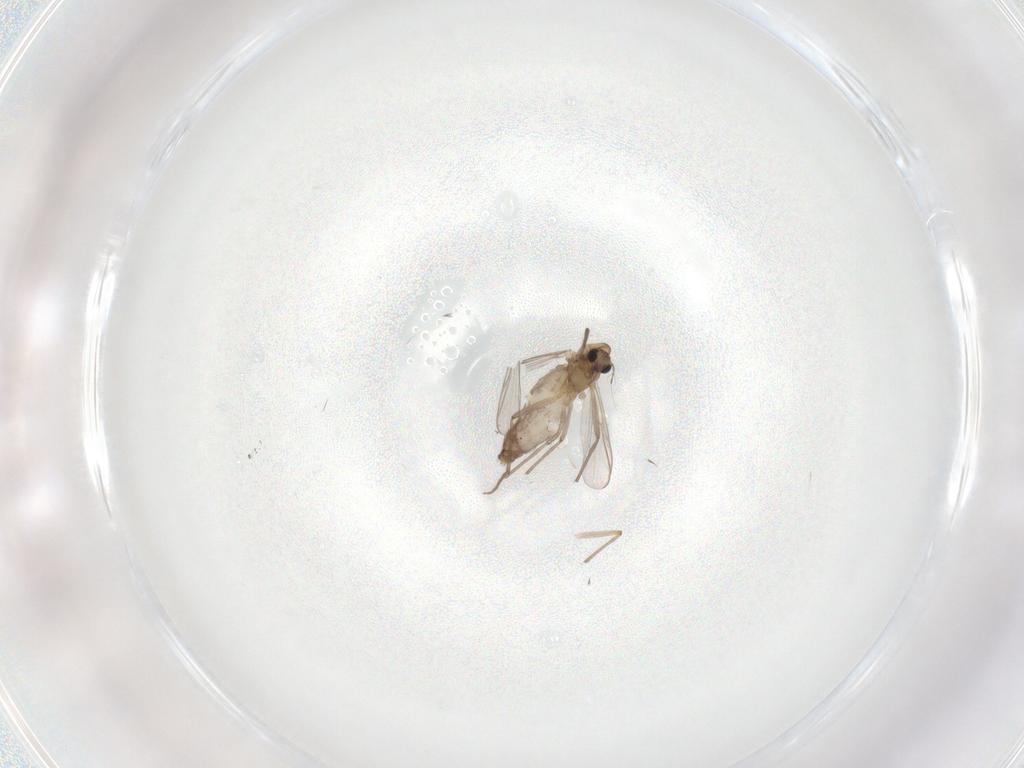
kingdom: Animalia
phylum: Arthropoda
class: Insecta
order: Diptera
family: Chironomidae
